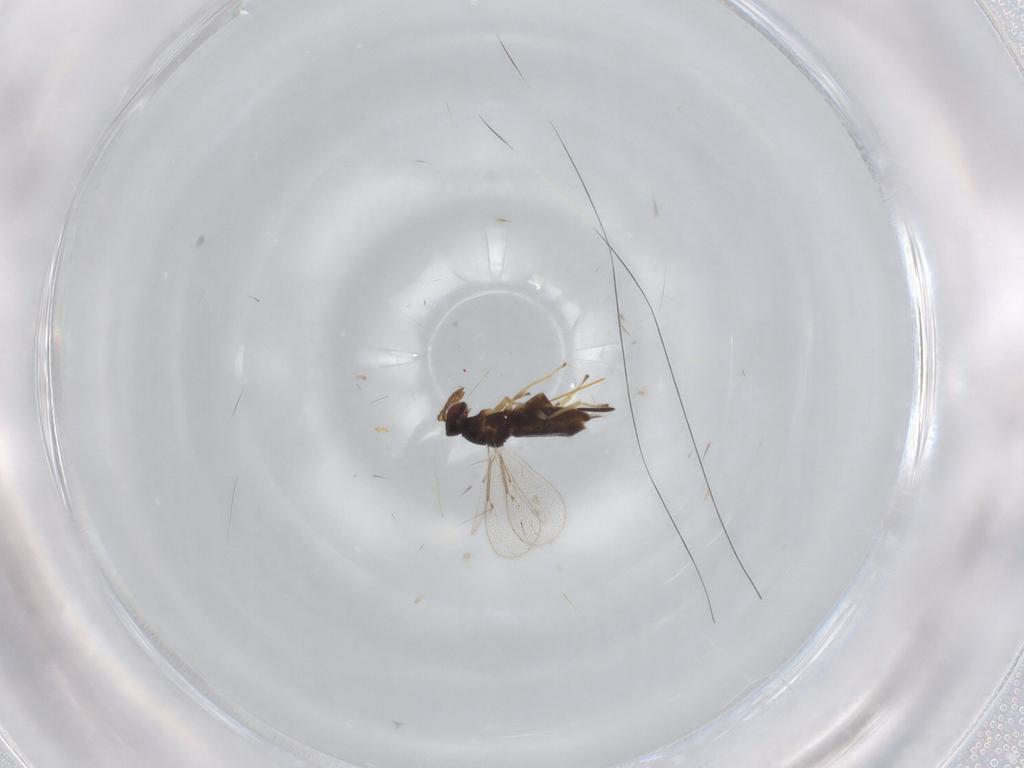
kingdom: Animalia
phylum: Arthropoda
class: Insecta
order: Hymenoptera
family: Eulophidae
